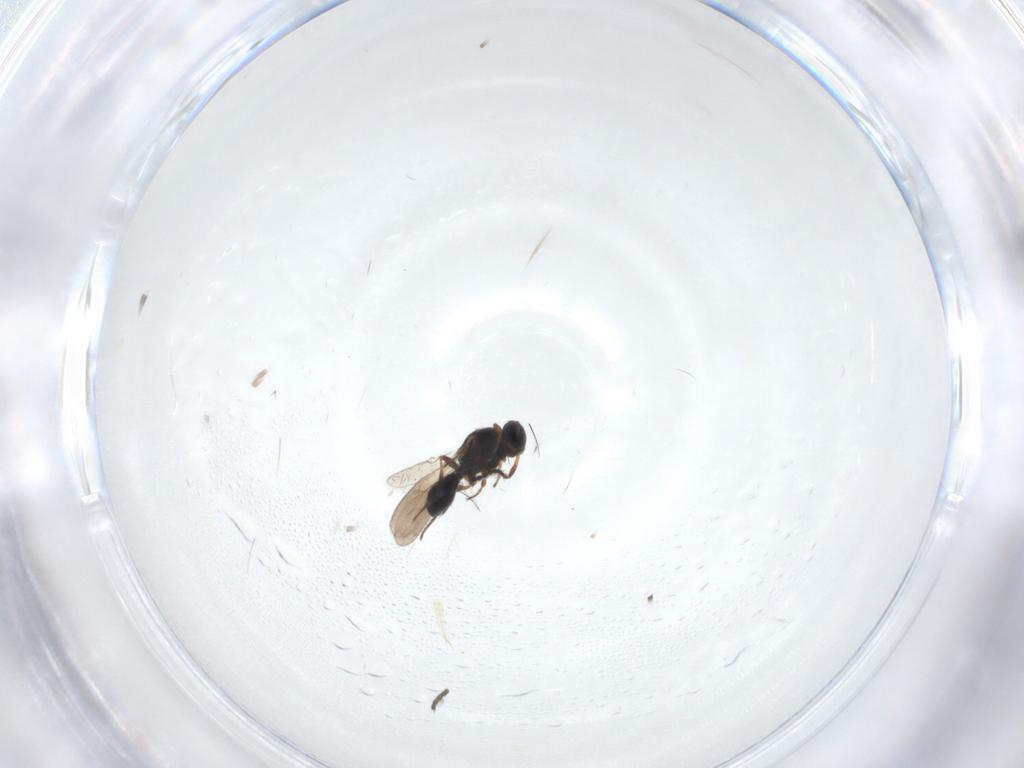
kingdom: Animalia
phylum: Arthropoda
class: Insecta
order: Hymenoptera
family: Platygastridae
